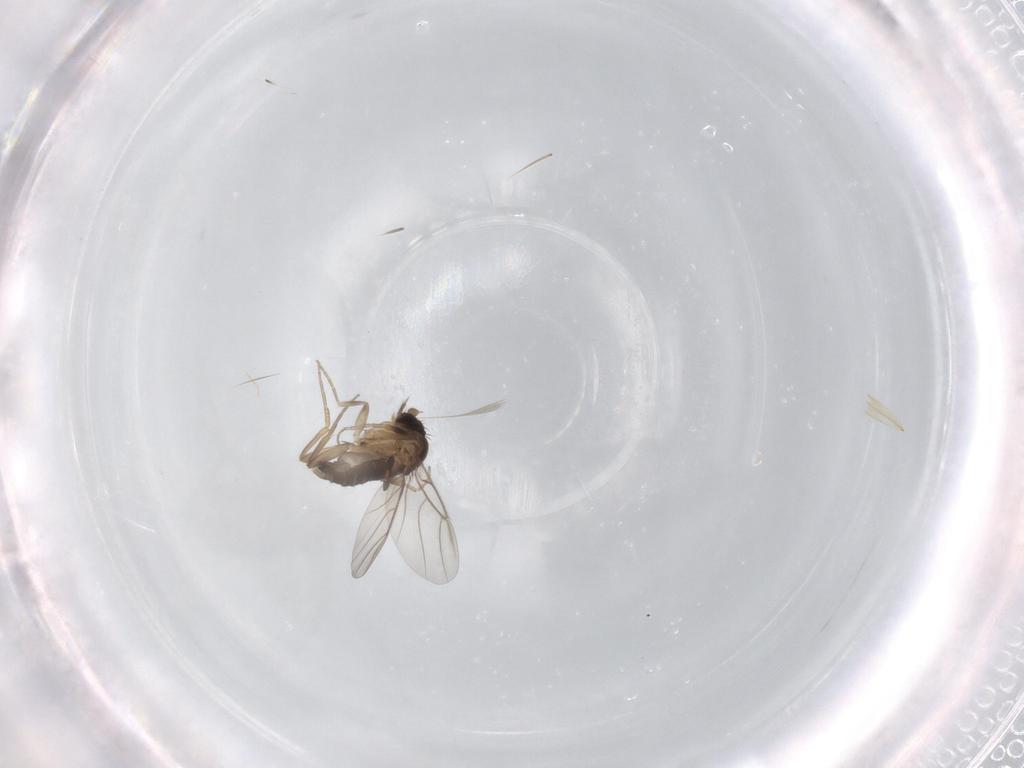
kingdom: Animalia
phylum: Arthropoda
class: Insecta
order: Diptera
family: Phoridae
